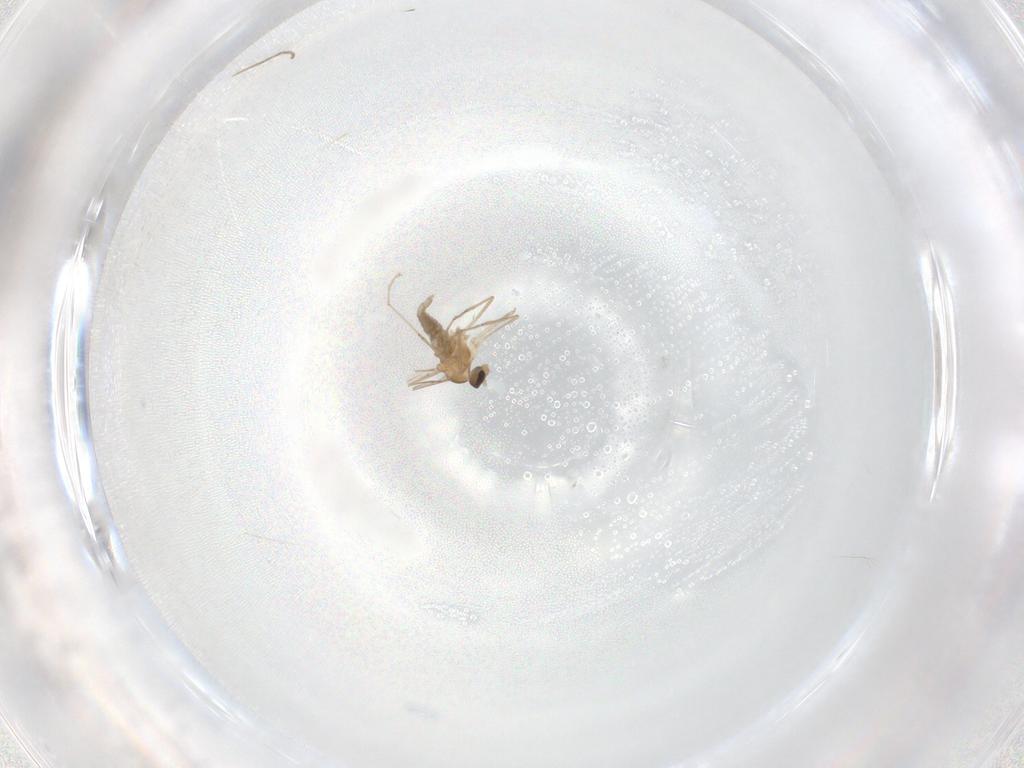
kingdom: Animalia
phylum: Arthropoda
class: Insecta
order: Diptera
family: Cecidomyiidae
